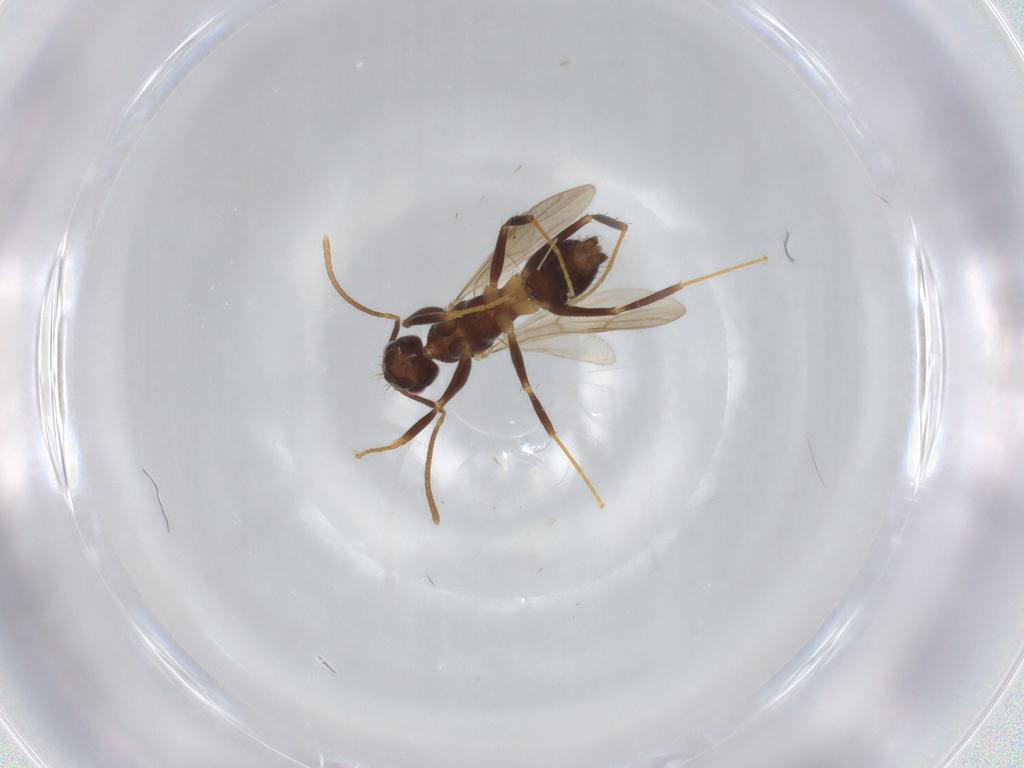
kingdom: Animalia
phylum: Arthropoda
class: Insecta
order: Hymenoptera
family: Formicidae
